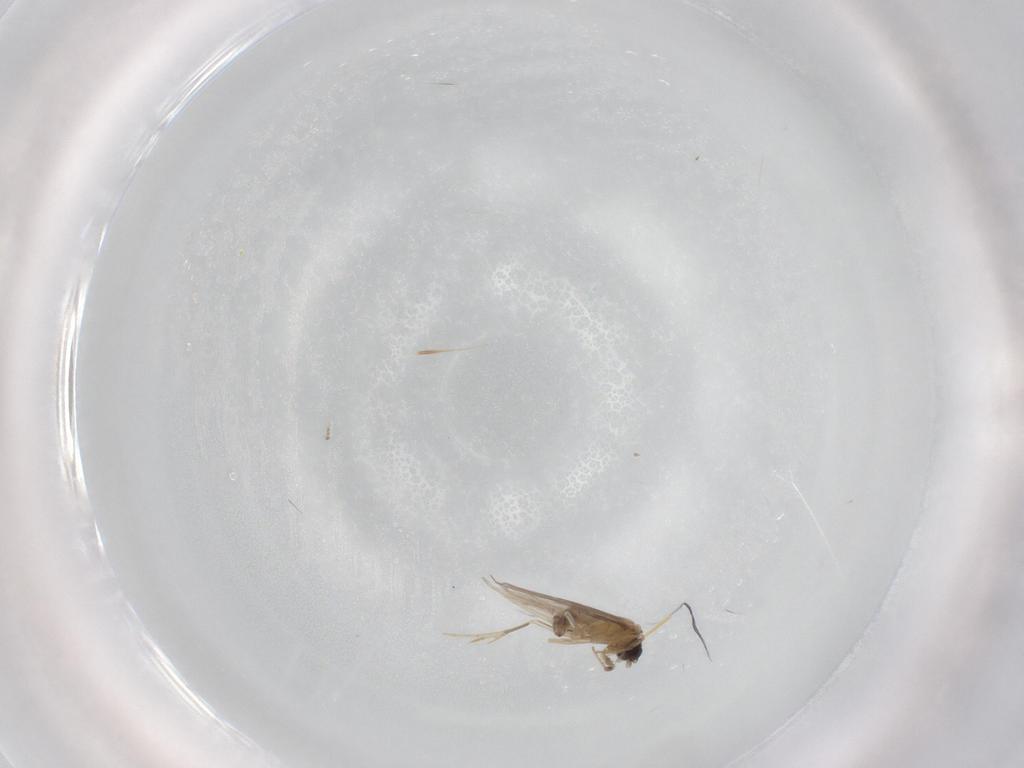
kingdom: Animalia
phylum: Arthropoda
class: Insecta
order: Trichoptera
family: Hydroptilidae
